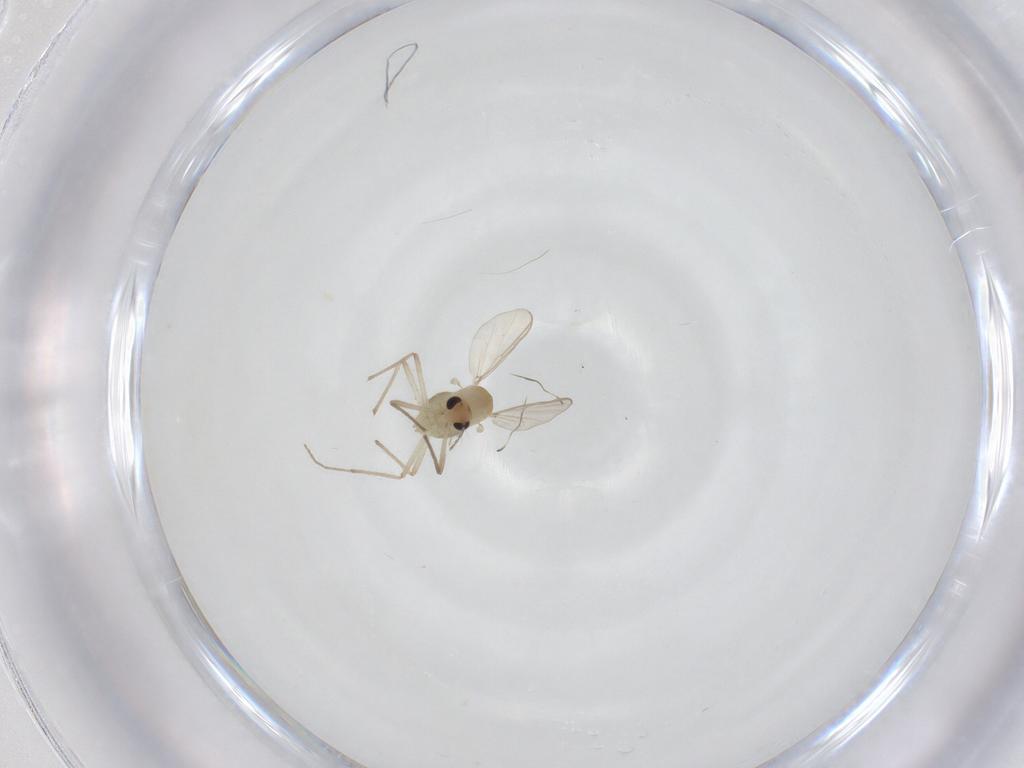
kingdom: Animalia
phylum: Arthropoda
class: Insecta
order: Diptera
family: Chironomidae
